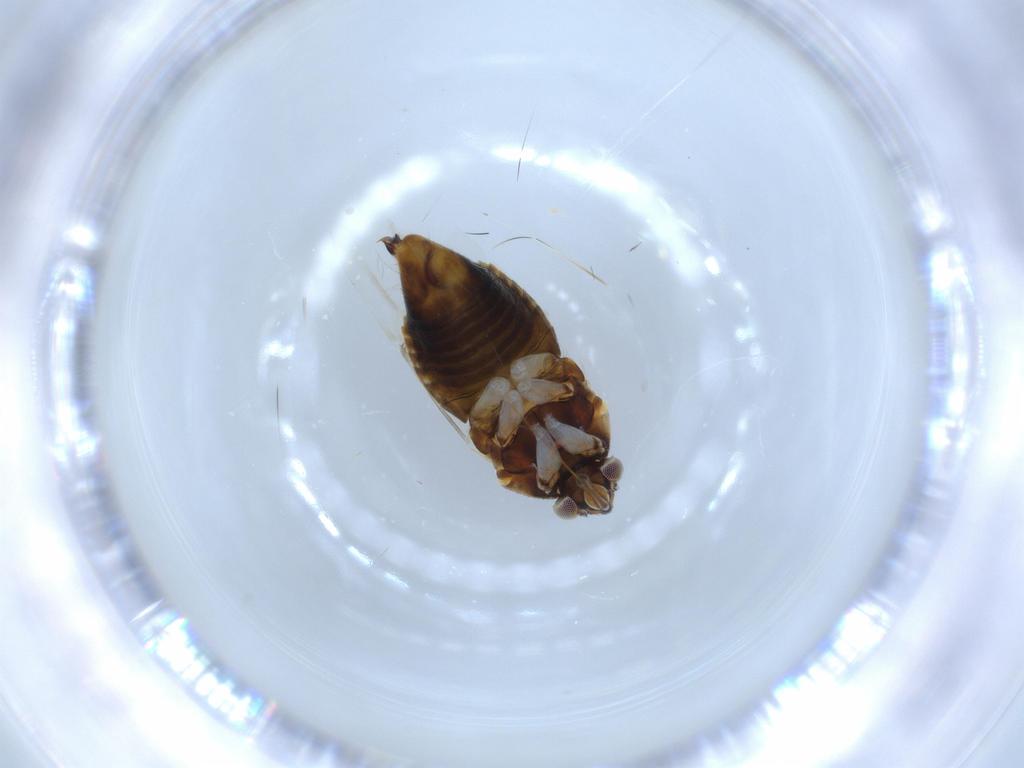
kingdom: Animalia
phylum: Arthropoda
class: Insecta
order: Hemiptera
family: Miridae
